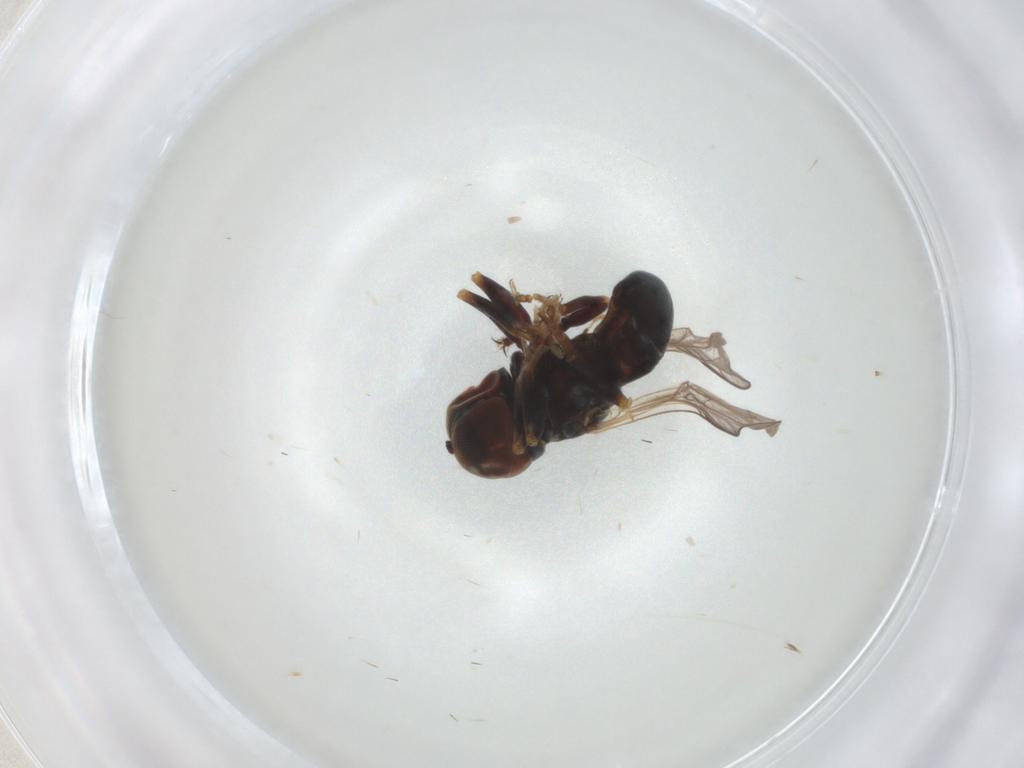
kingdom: Animalia
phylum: Arthropoda
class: Insecta
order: Diptera
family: Pipunculidae
